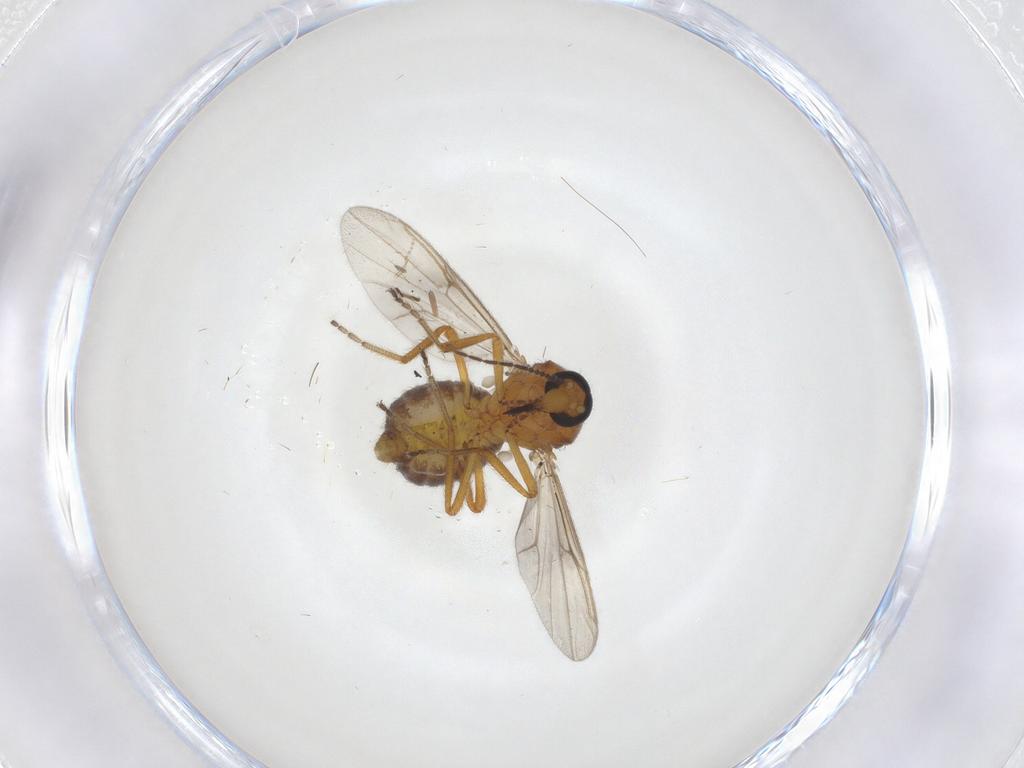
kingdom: Animalia
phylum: Arthropoda
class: Insecta
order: Diptera
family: Ceratopogonidae
